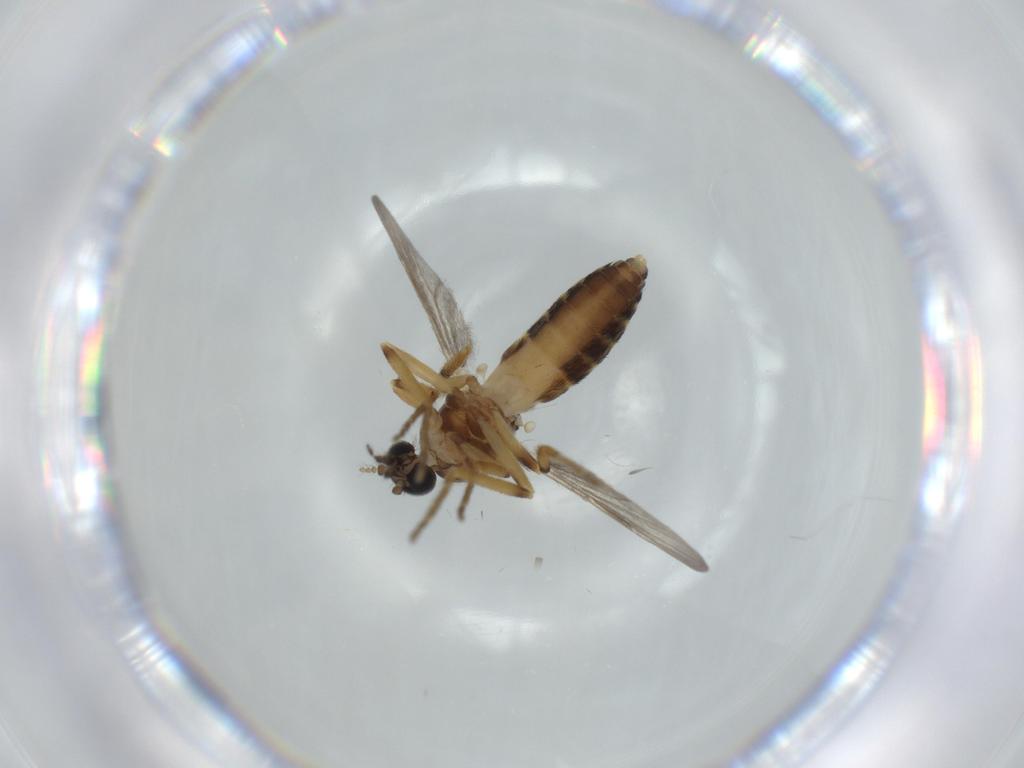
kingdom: Animalia
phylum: Arthropoda
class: Insecta
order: Diptera
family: Ceratopogonidae
